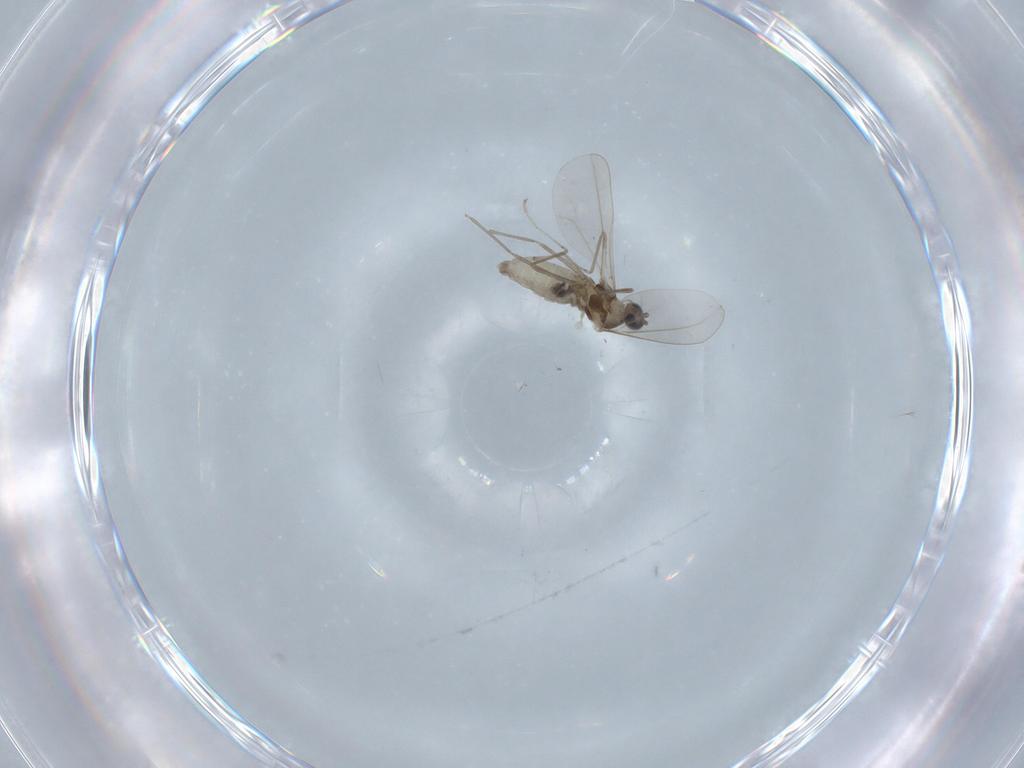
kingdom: Animalia
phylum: Arthropoda
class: Insecta
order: Diptera
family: Cecidomyiidae
